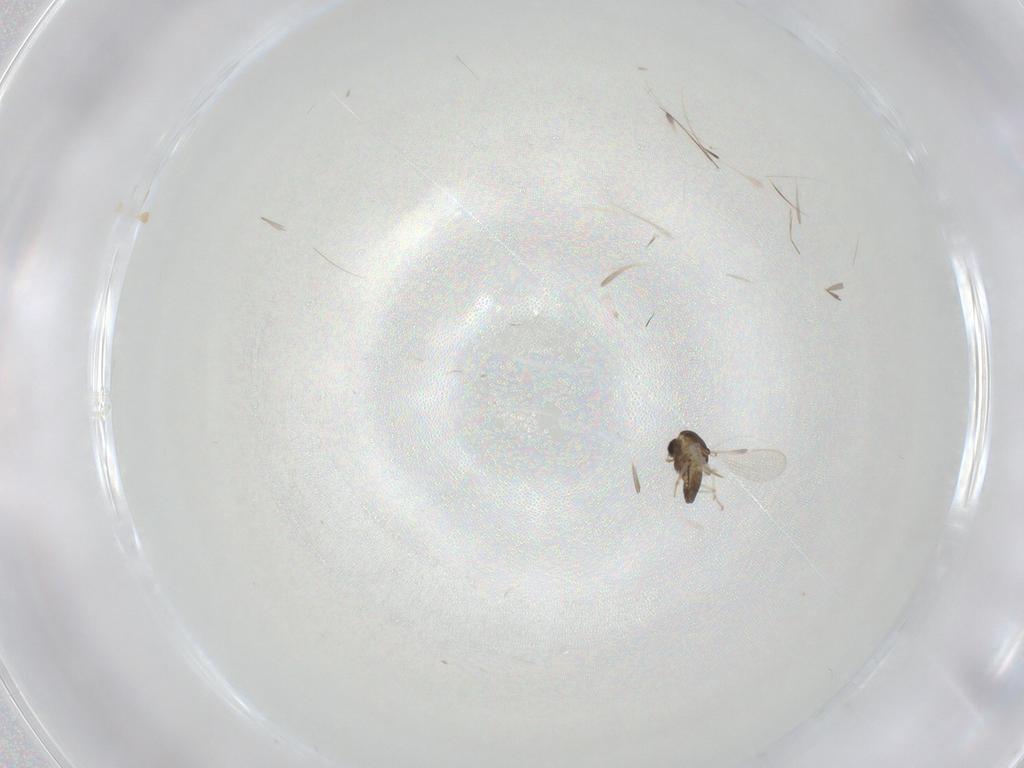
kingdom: Animalia
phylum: Arthropoda
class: Insecta
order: Diptera
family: Chironomidae
